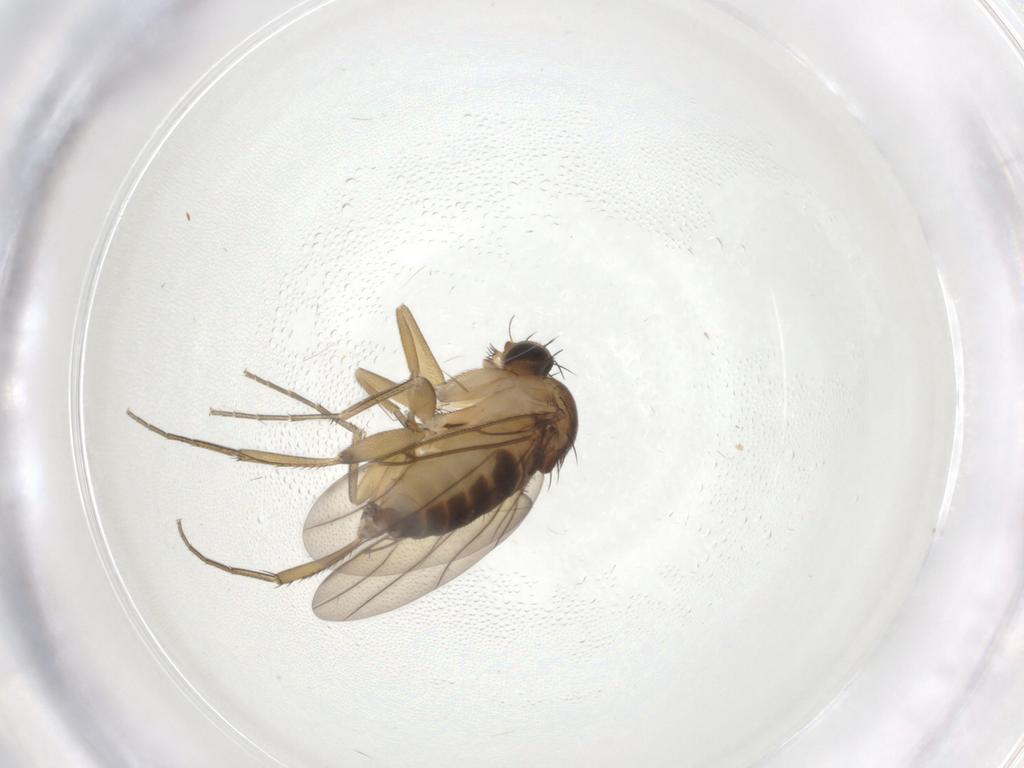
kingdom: Animalia
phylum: Arthropoda
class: Insecta
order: Diptera
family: Phoridae
